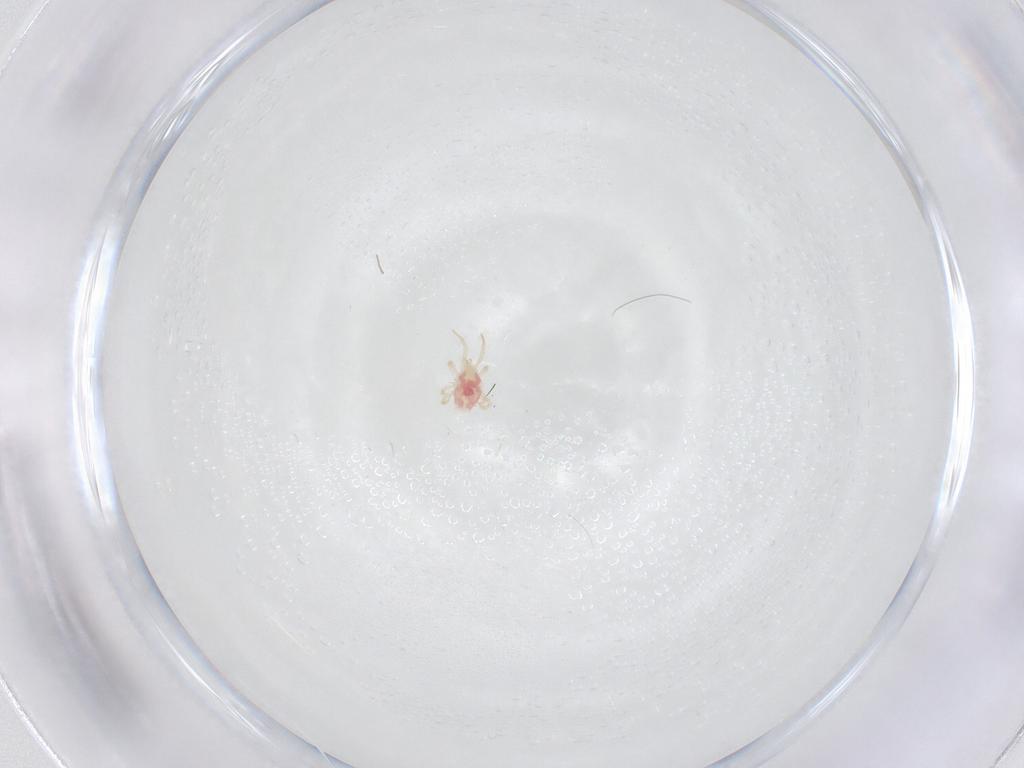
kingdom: Animalia
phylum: Arthropoda
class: Arachnida
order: Mesostigmata
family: Phytoseiidae
